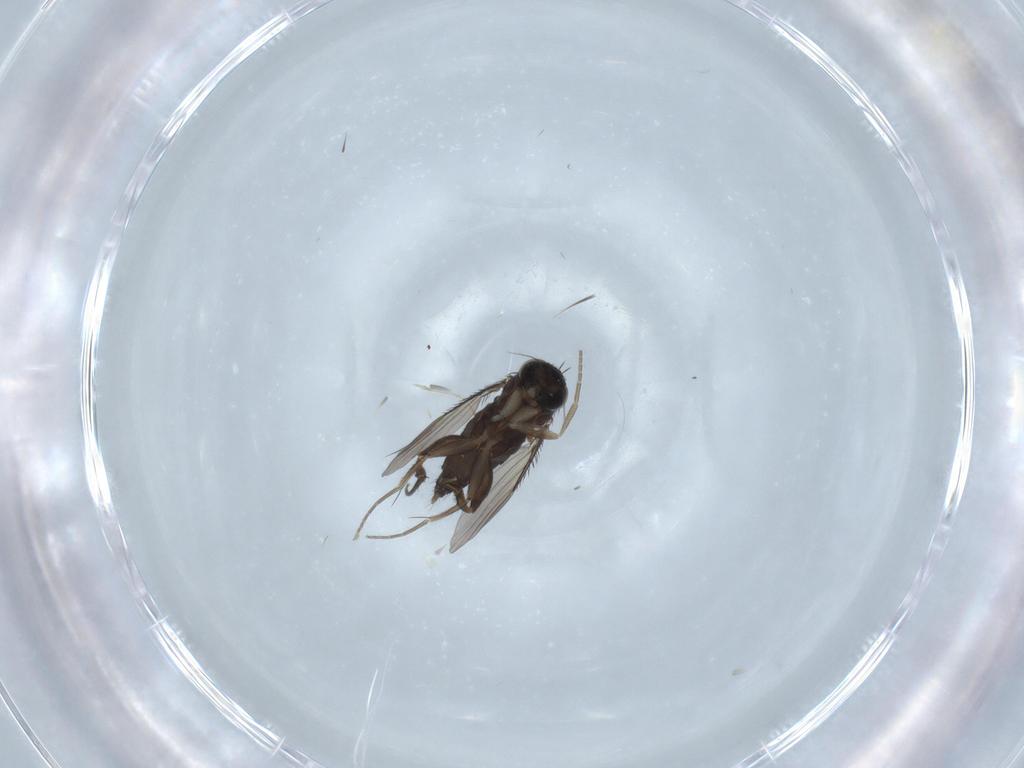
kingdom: Animalia
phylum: Arthropoda
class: Insecta
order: Diptera
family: Phoridae
